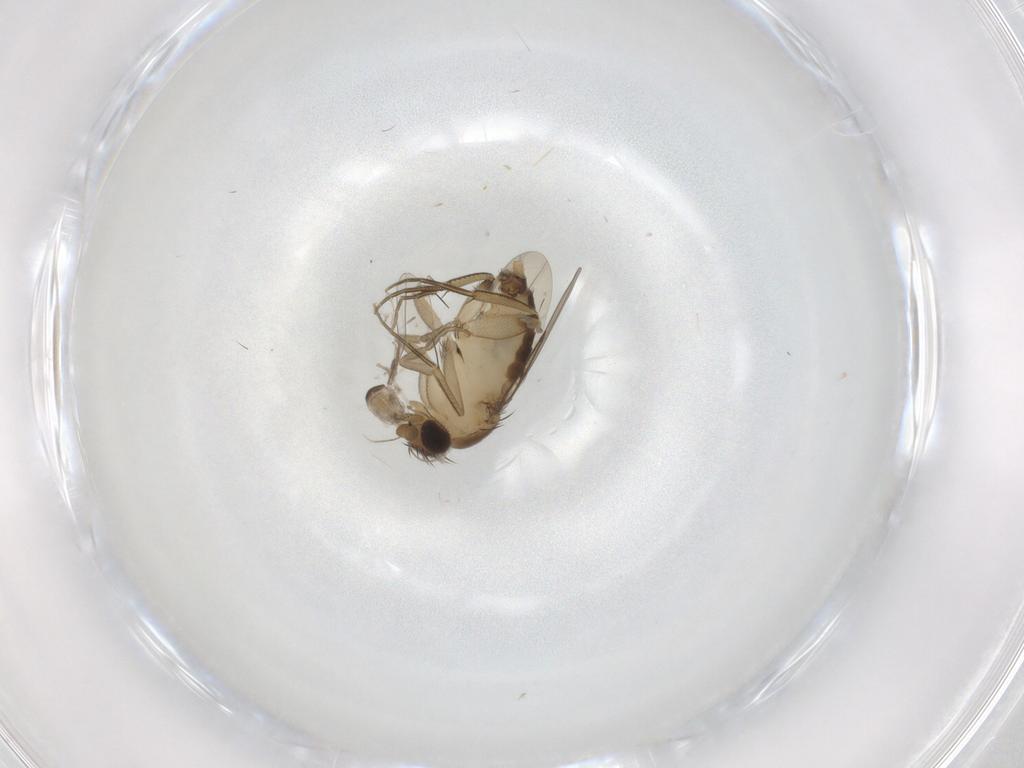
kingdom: Animalia
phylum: Arthropoda
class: Insecta
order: Diptera
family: Phoridae
